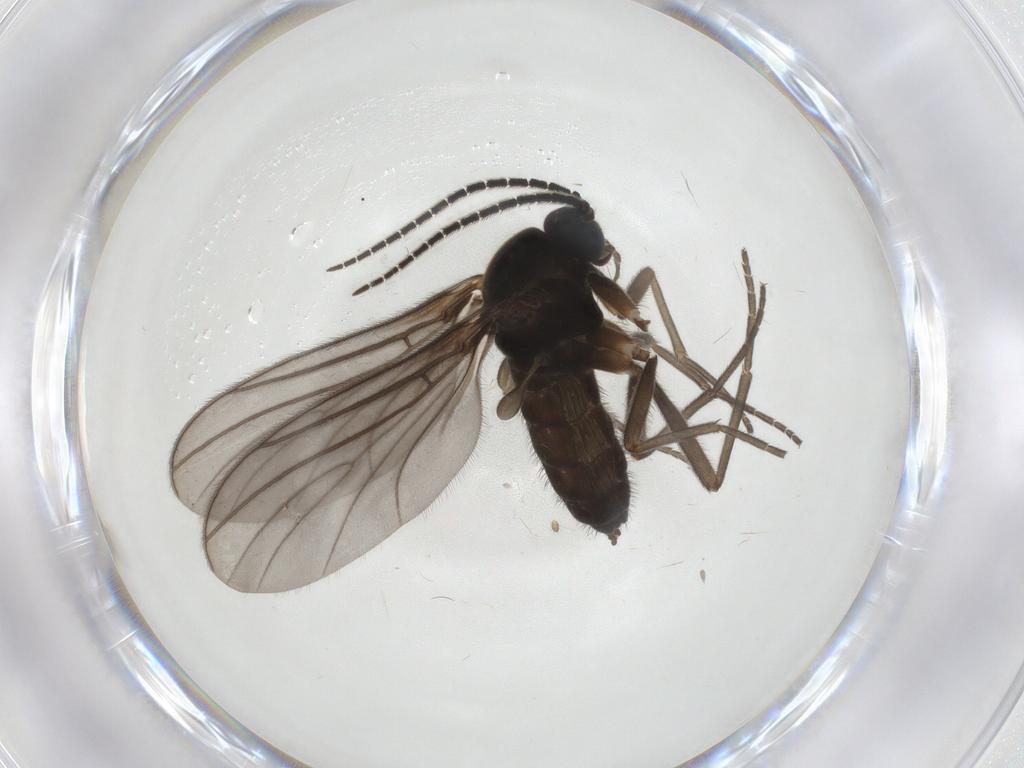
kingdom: Animalia
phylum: Arthropoda
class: Insecta
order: Diptera
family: Sciaridae
